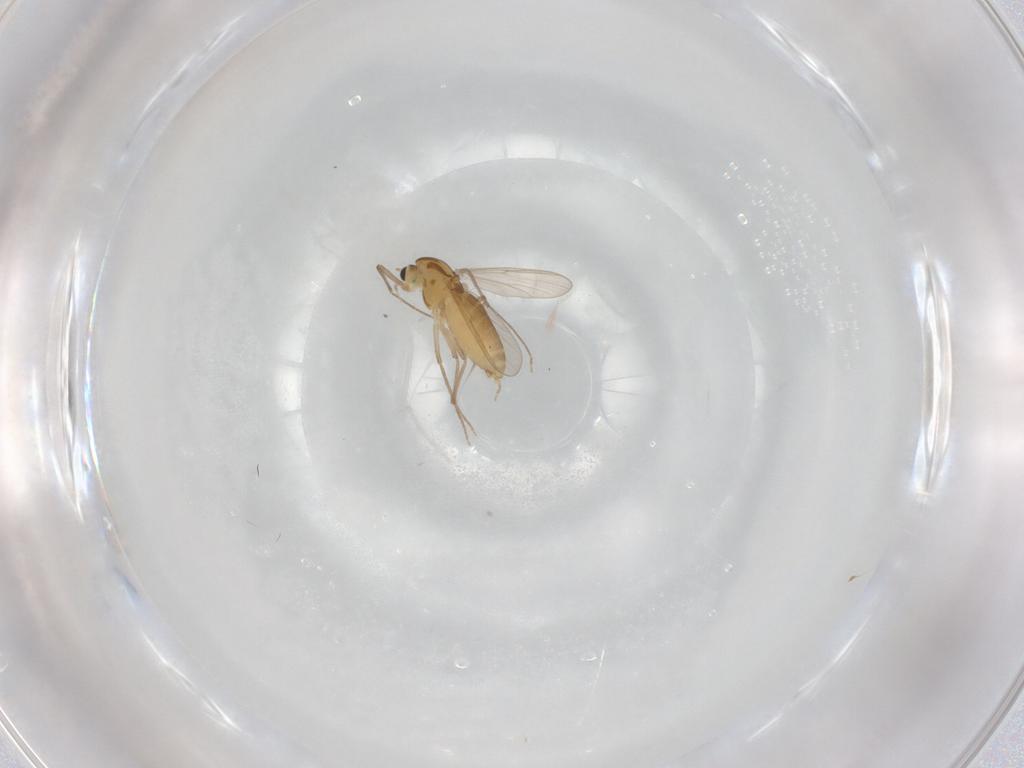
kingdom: Animalia
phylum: Arthropoda
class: Insecta
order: Diptera
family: Chironomidae
